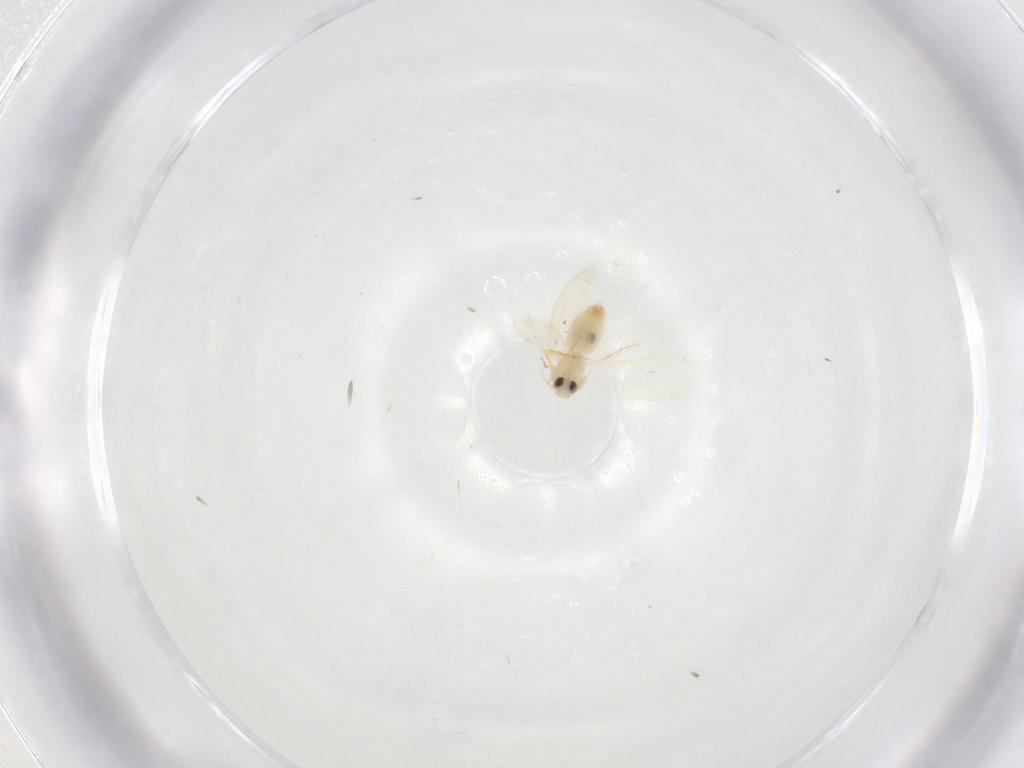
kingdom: Animalia
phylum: Arthropoda
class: Insecta
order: Hemiptera
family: Aleyrodidae
